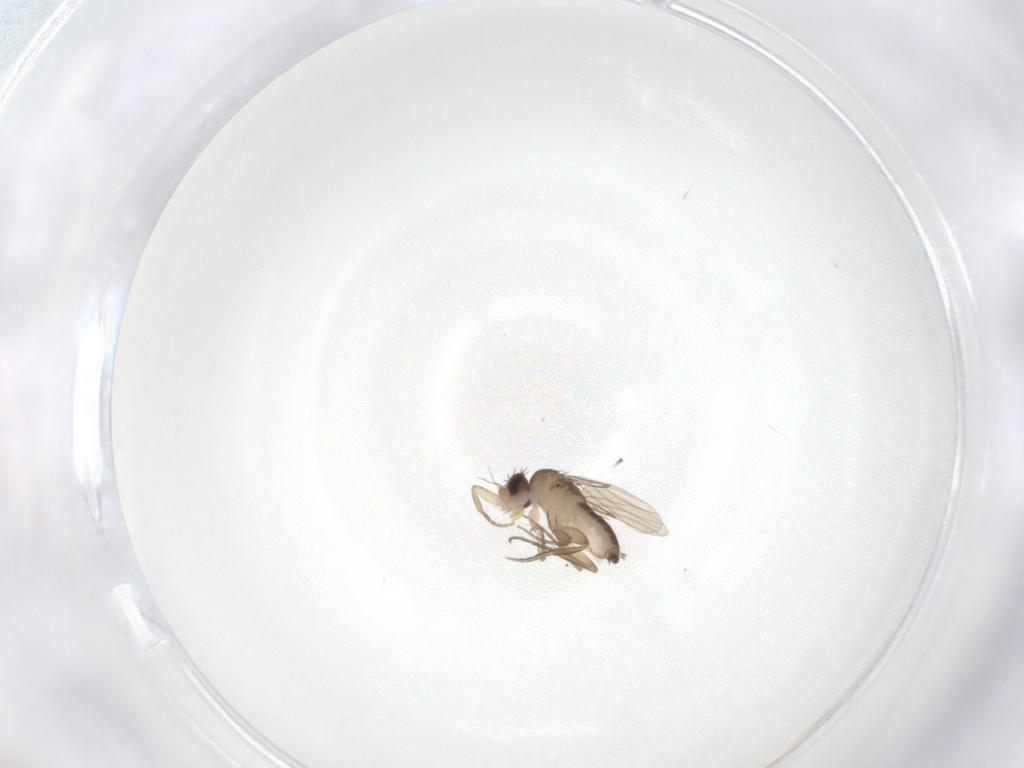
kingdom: Animalia
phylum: Arthropoda
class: Insecta
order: Diptera
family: Phoridae
